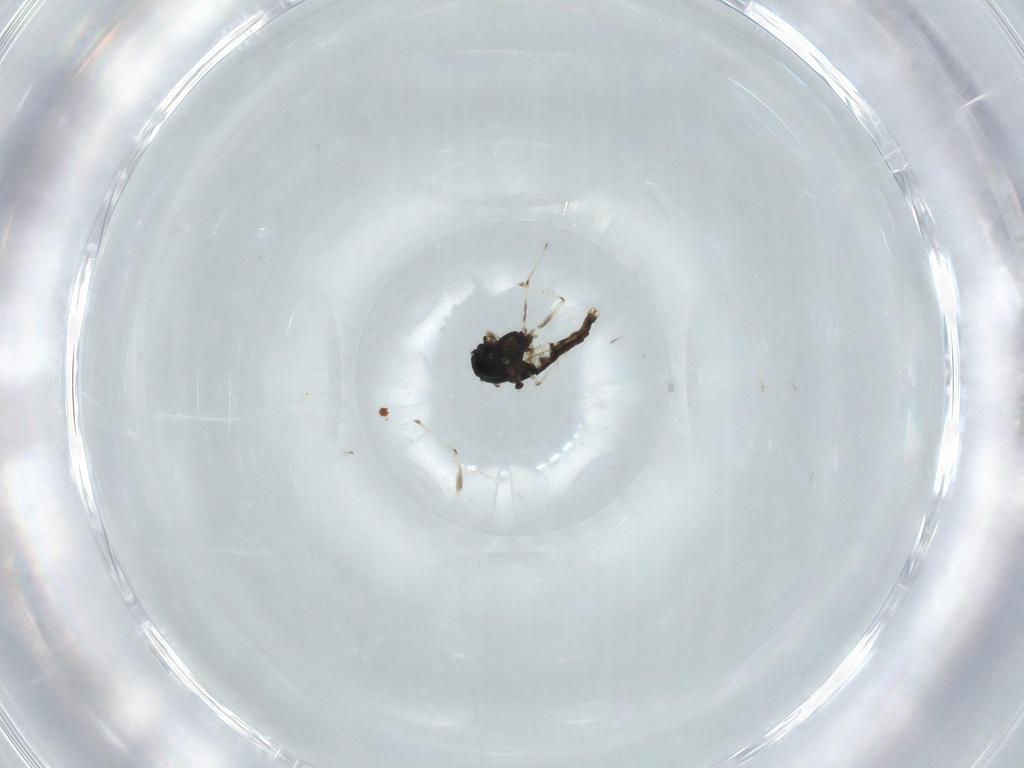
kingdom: Animalia
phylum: Arthropoda
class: Insecta
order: Diptera
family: Chironomidae
